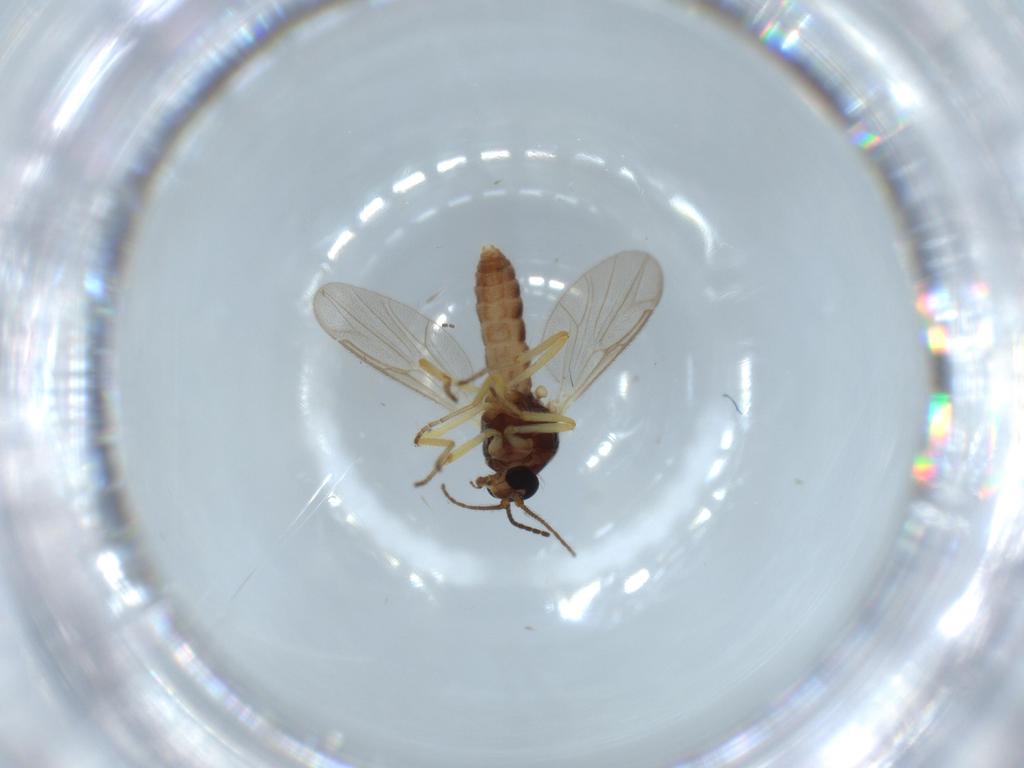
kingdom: Animalia
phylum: Arthropoda
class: Insecta
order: Diptera
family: Ceratopogonidae
